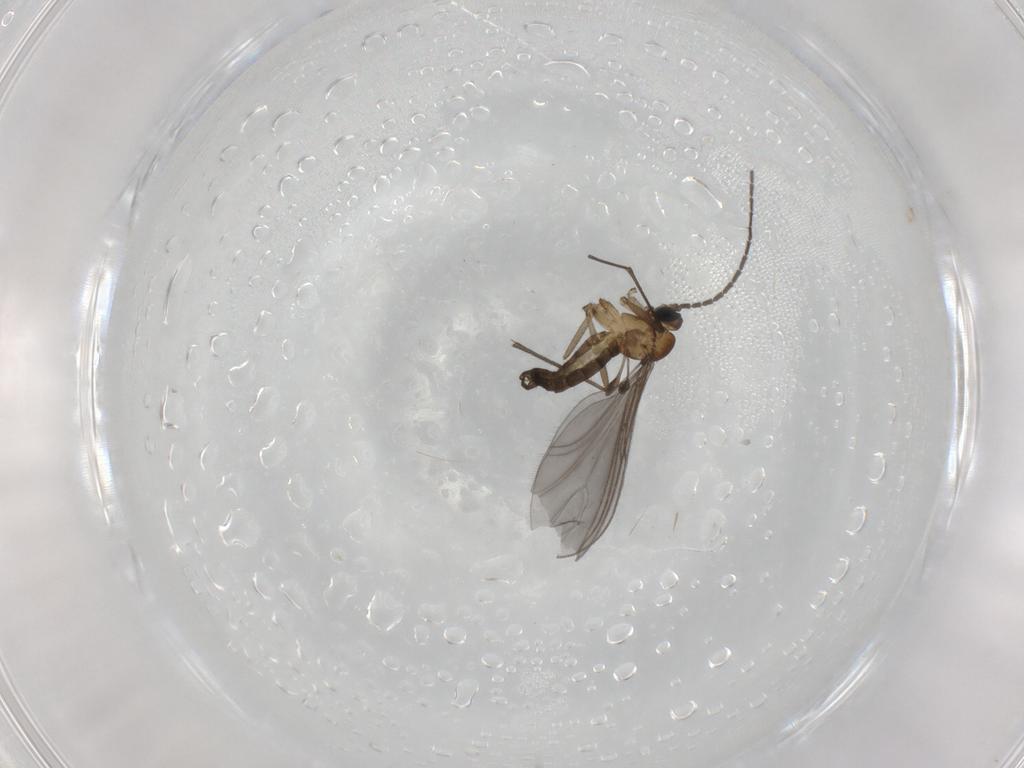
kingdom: Animalia
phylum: Arthropoda
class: Insecta
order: Diptera
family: Sciaridae
